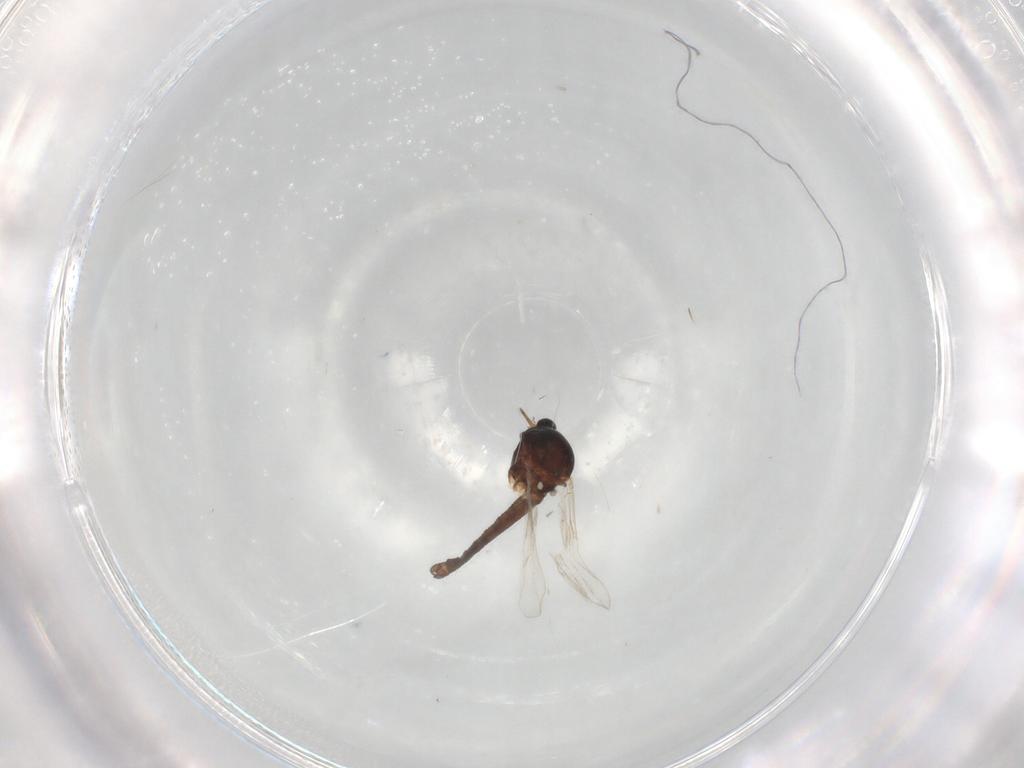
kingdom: Animalia
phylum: Arthropoda
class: Insecta
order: Diptera
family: Ceratopogonidae
